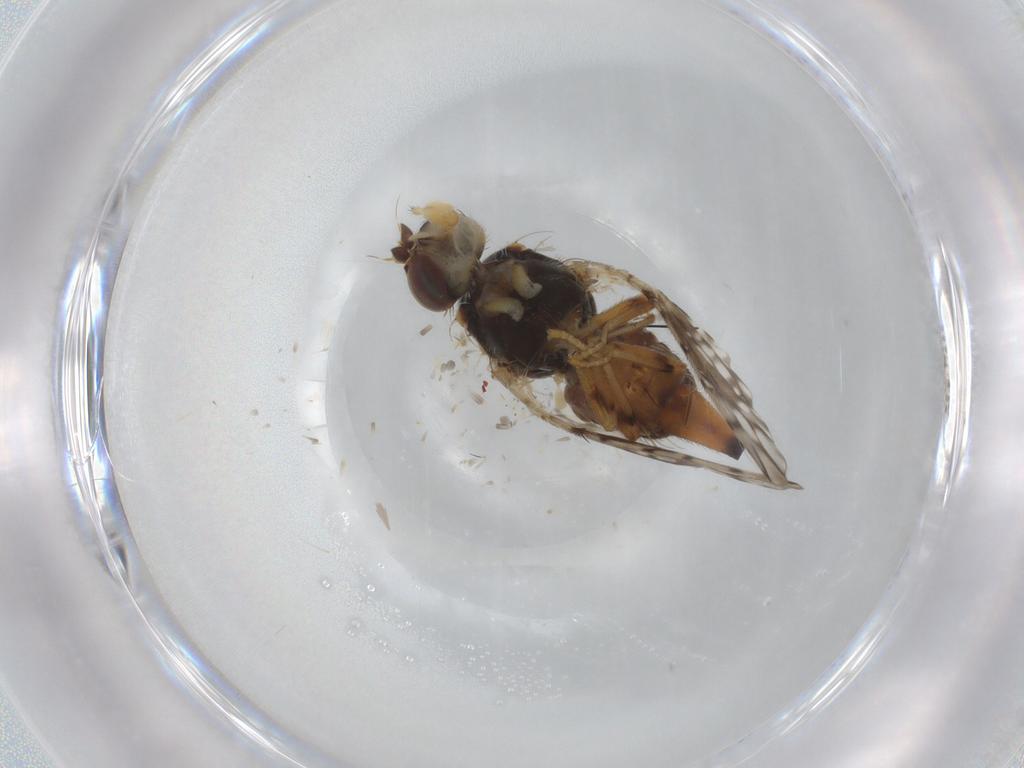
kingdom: Animalia
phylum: Arthropoda
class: Insecta
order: Diptera
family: Tephritidae
